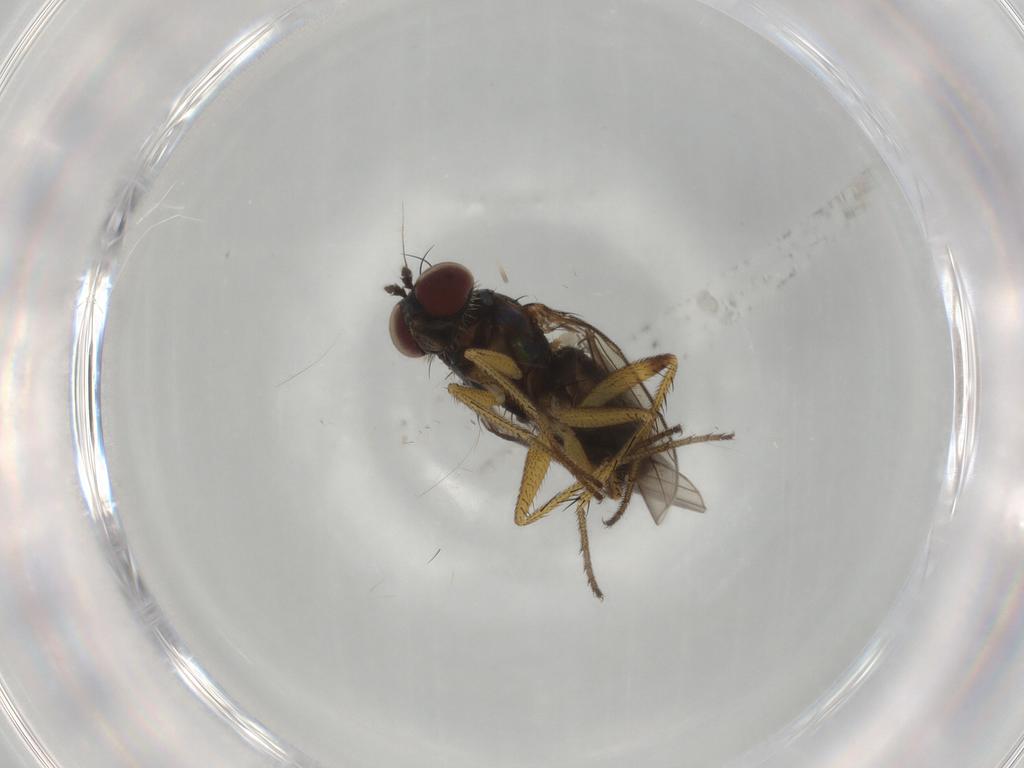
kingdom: Animalia
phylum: Arthropoda
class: Insecta
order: Diptera
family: Dolichopodidae
